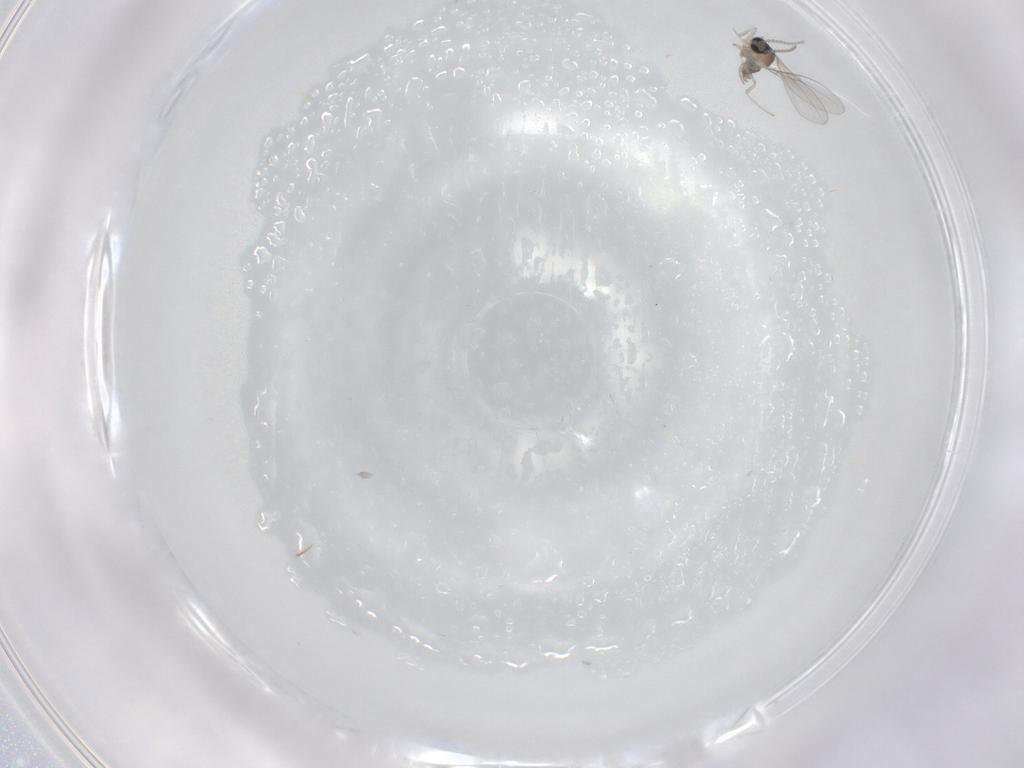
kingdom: Animalia
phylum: Arthropoda
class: Insecta
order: Diptera
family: Cecidomyiidae
